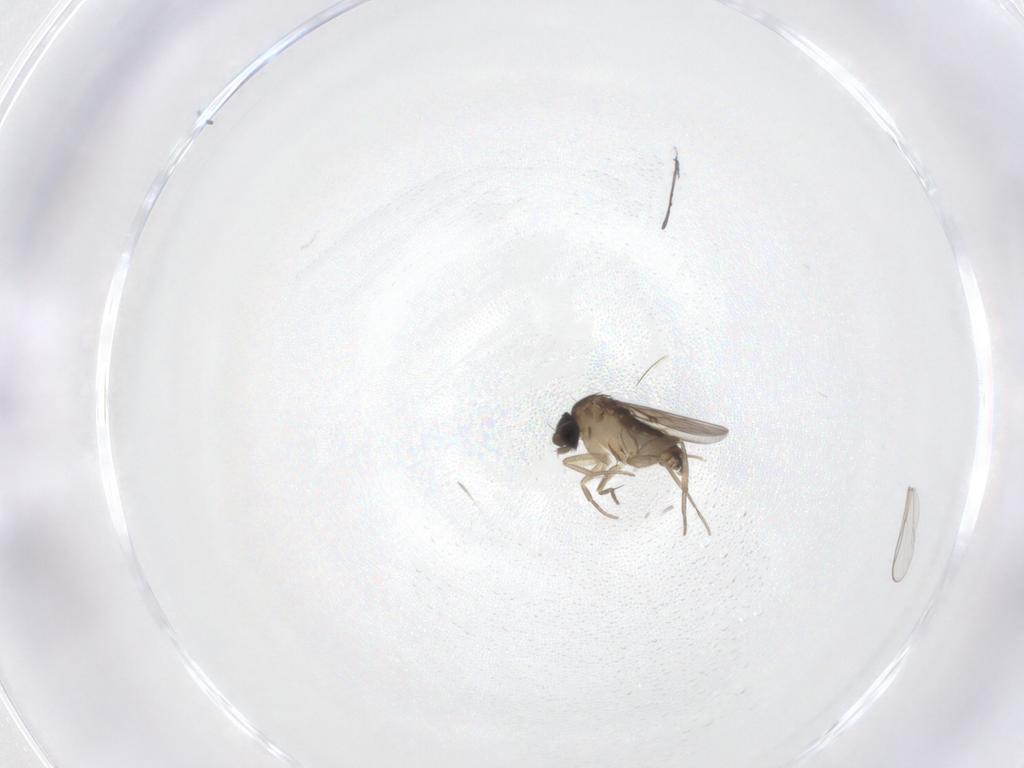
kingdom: Animalia
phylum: Arthropoda
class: Insecta
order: Diptera
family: Phoridae
